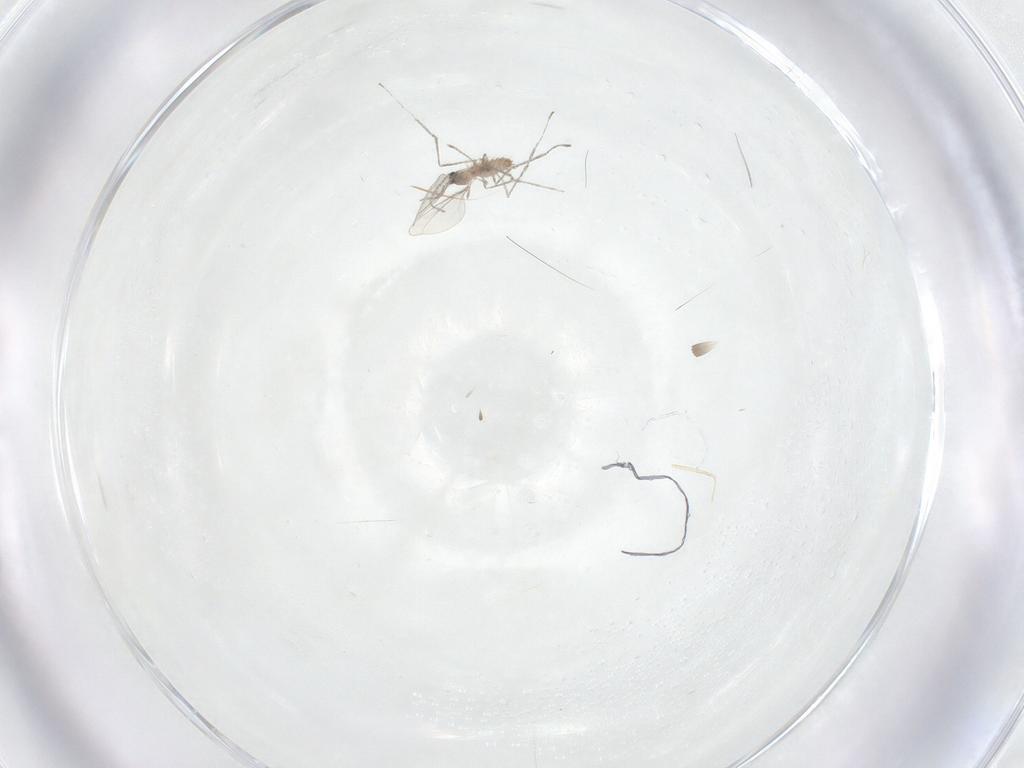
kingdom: Animalia
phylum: Arthropoda
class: Insecta
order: Diptera
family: Cecidomyiidae
